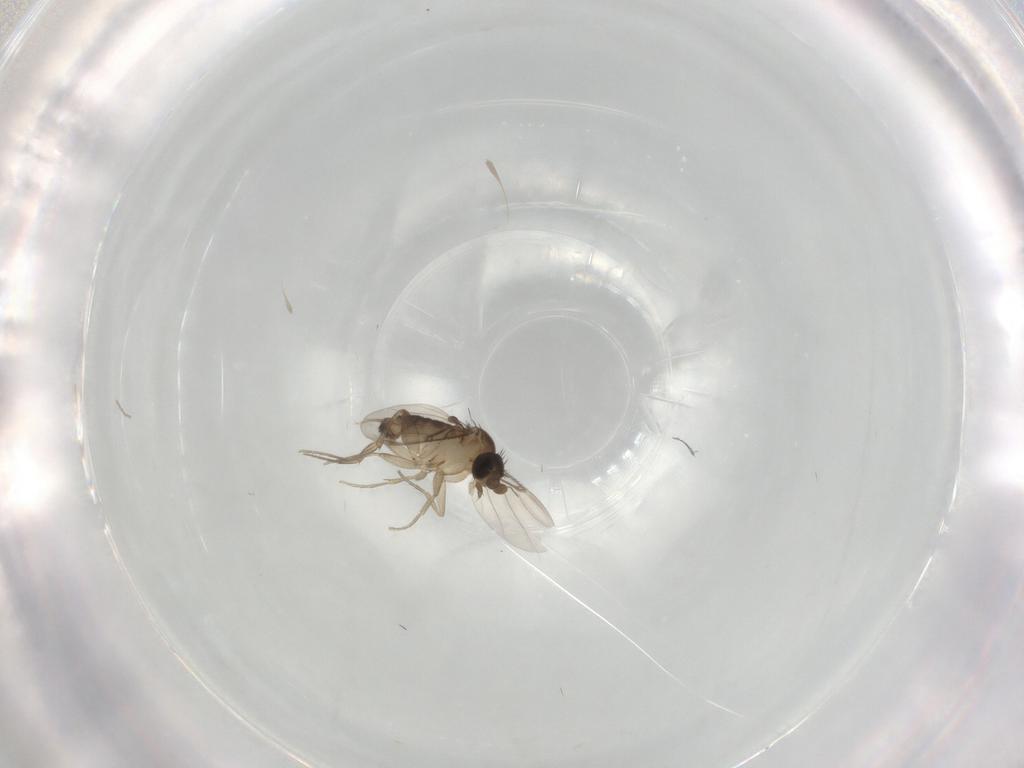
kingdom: Animalia
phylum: Arthropoda
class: Insecta
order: Diptera
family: Phoridae
